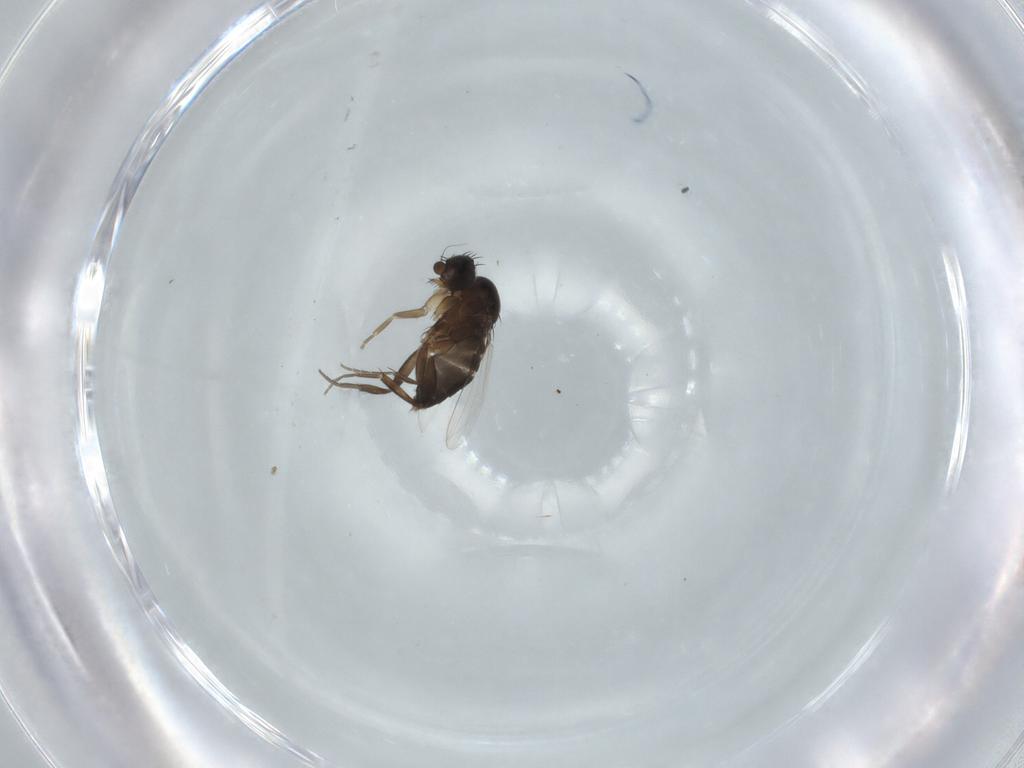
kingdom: Animalia
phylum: Arthropoda
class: Insecta
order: Diptera
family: Phoridae
